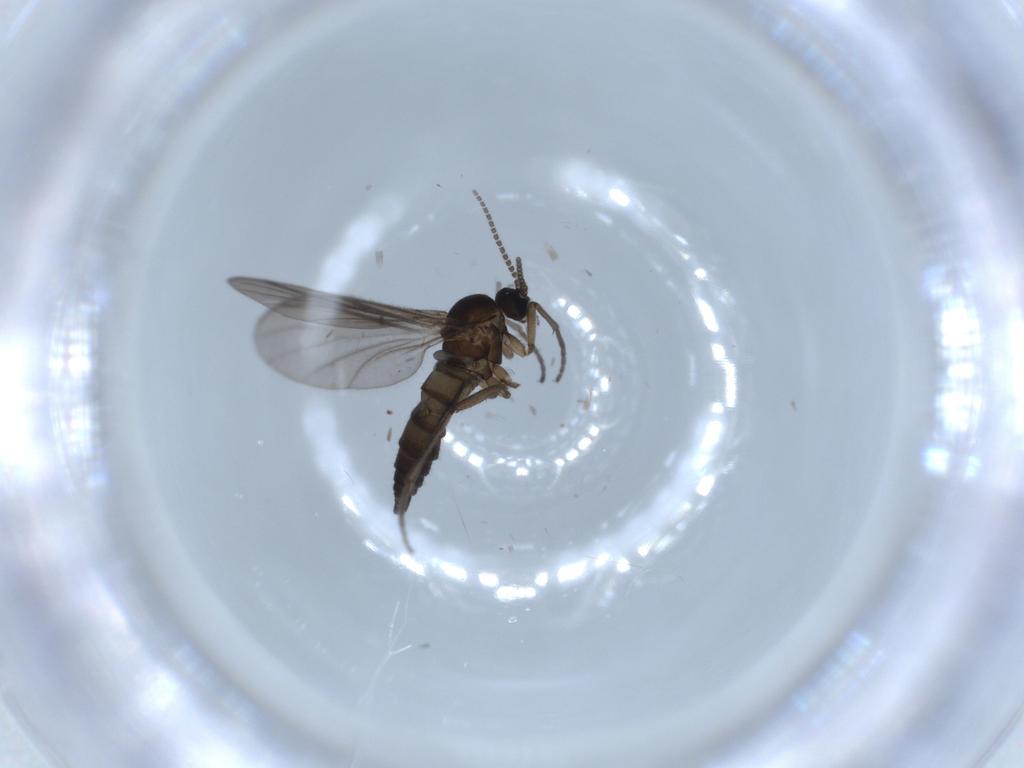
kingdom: Animalia
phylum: Arthropoda
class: Insecta
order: Diptera
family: Sciaridae
